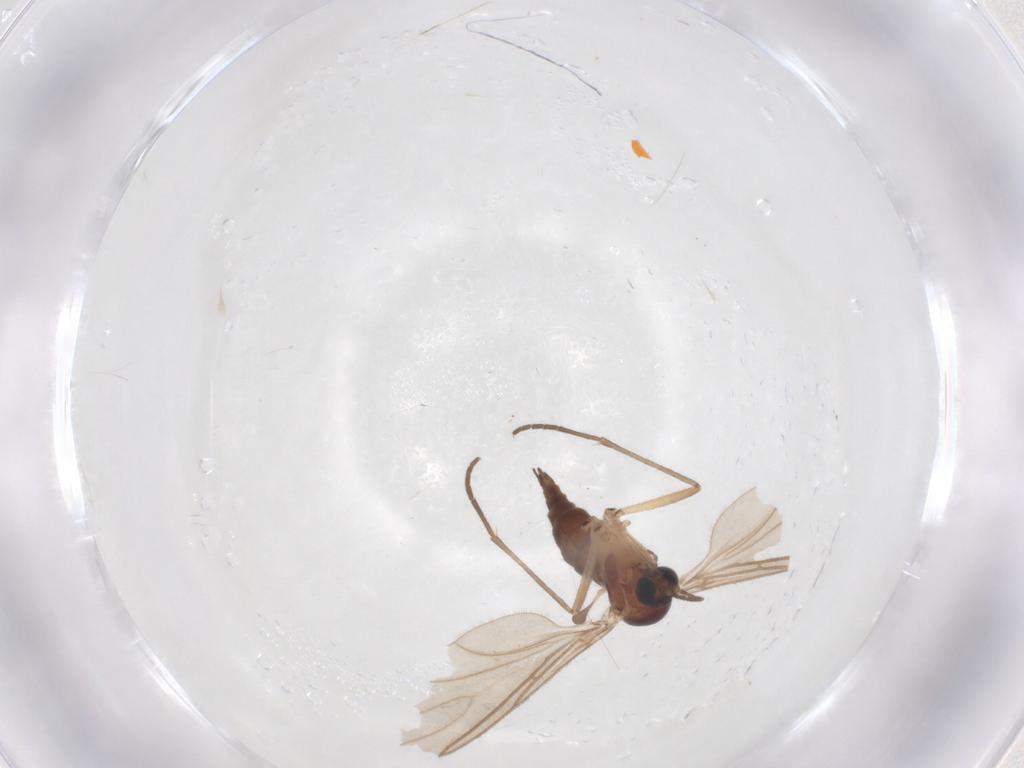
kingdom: Animalia
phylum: Arthropoda
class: Insecta
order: Diptera
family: Sciaridae
